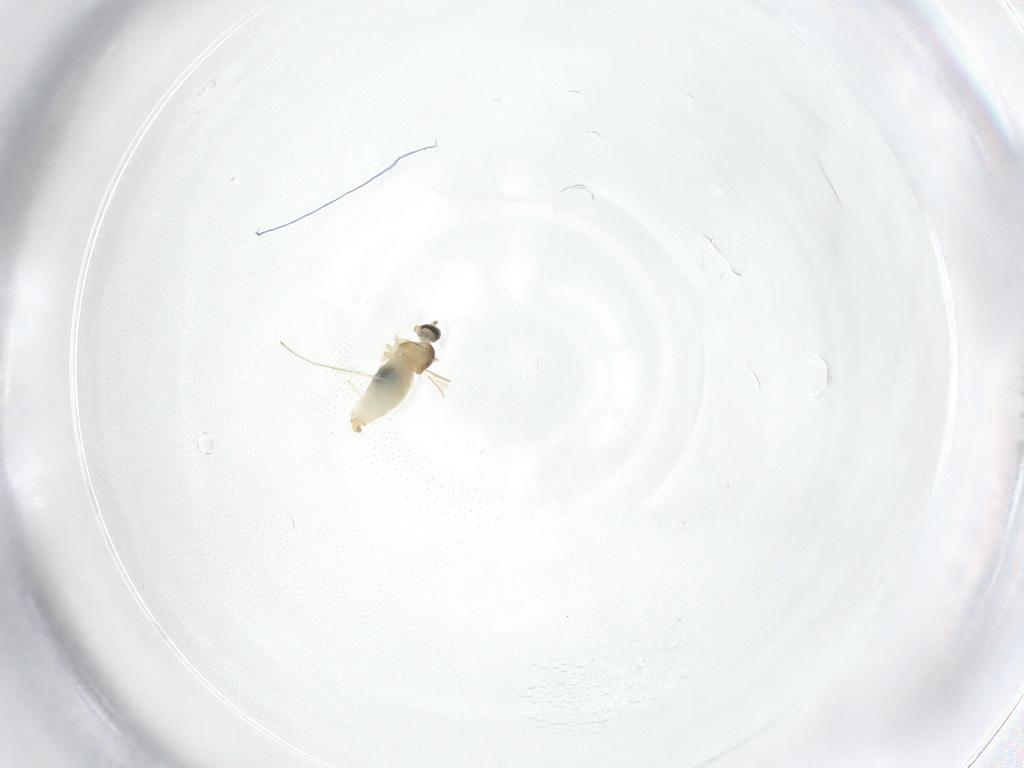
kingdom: Animalia
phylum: Arthropoda
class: Insecta
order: Diptera
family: Cecidomyiidae
